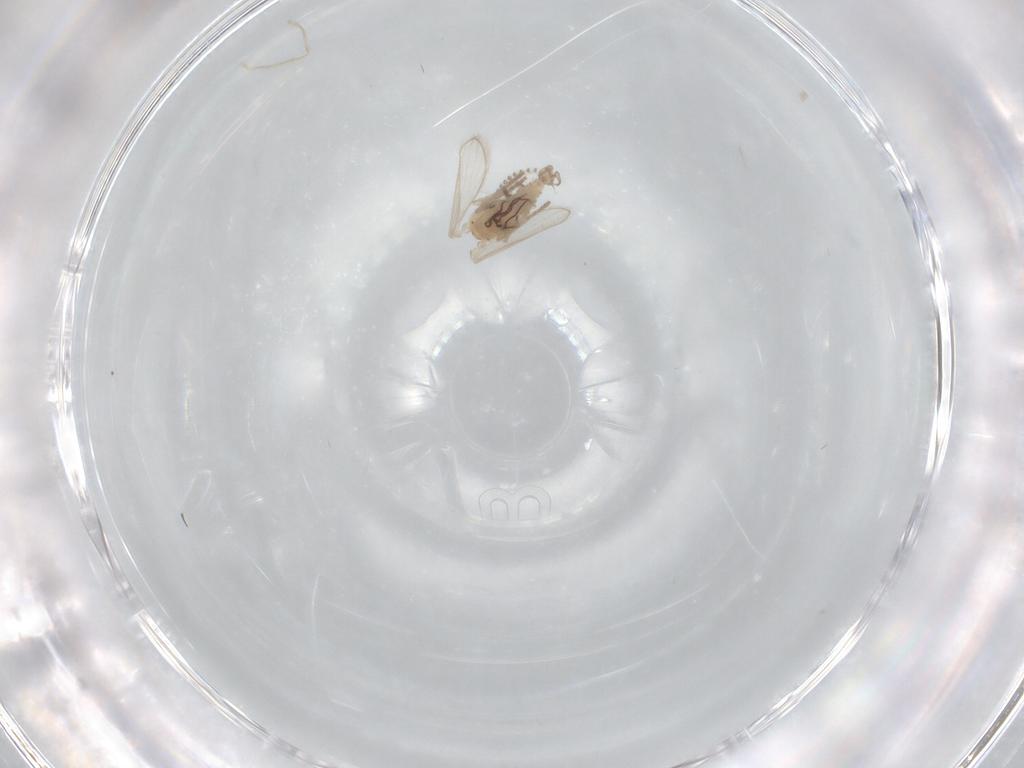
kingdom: Animalia
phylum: Arthropoda
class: Insecta
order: Diptera
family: Psychodidae
